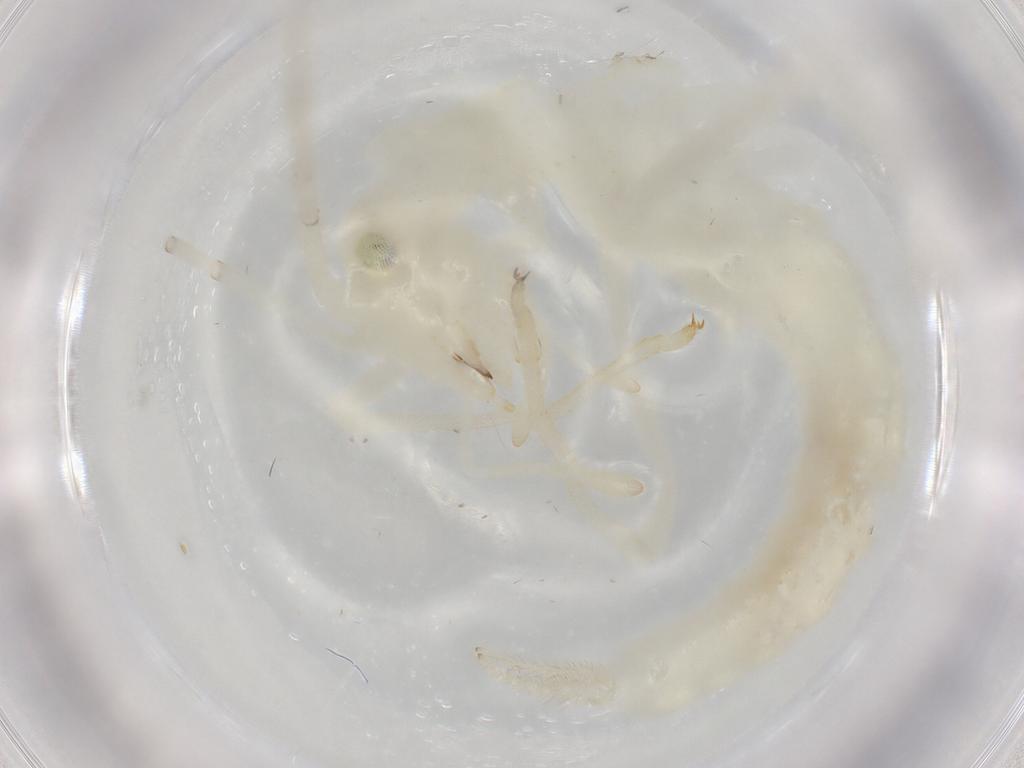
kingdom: Animalia
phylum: Arthropoda
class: Insecta
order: Orthoptera
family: Oecanthidae
